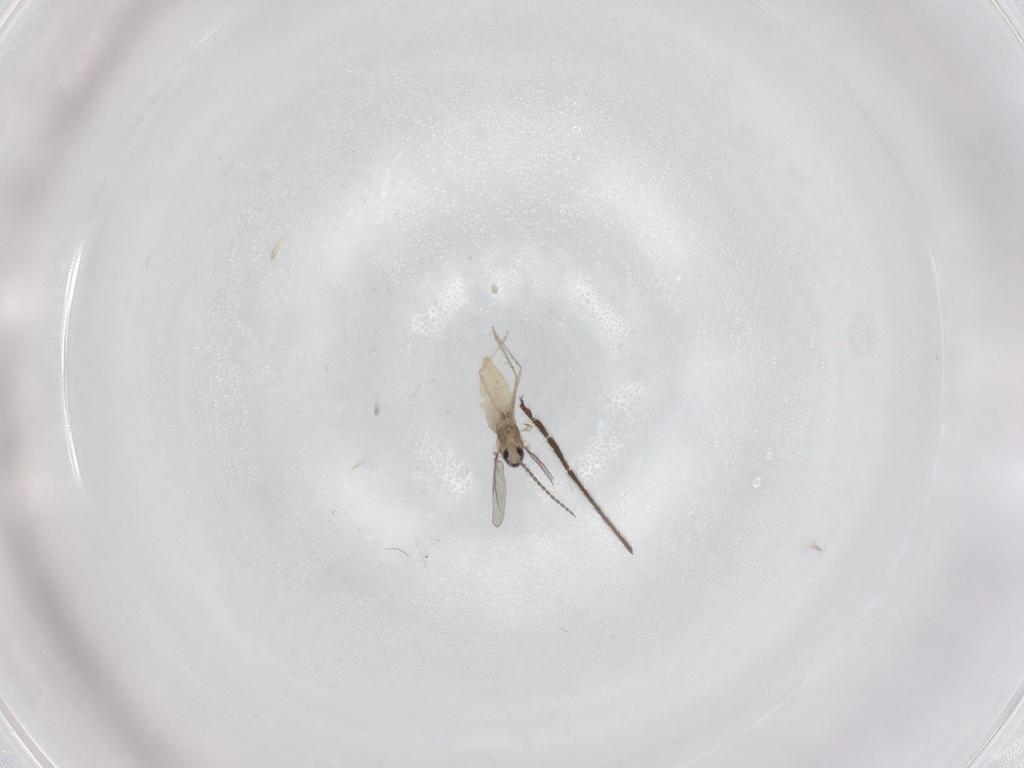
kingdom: Animalia
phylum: Arthropoda
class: Insecta
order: Diptera
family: Limoniidae
